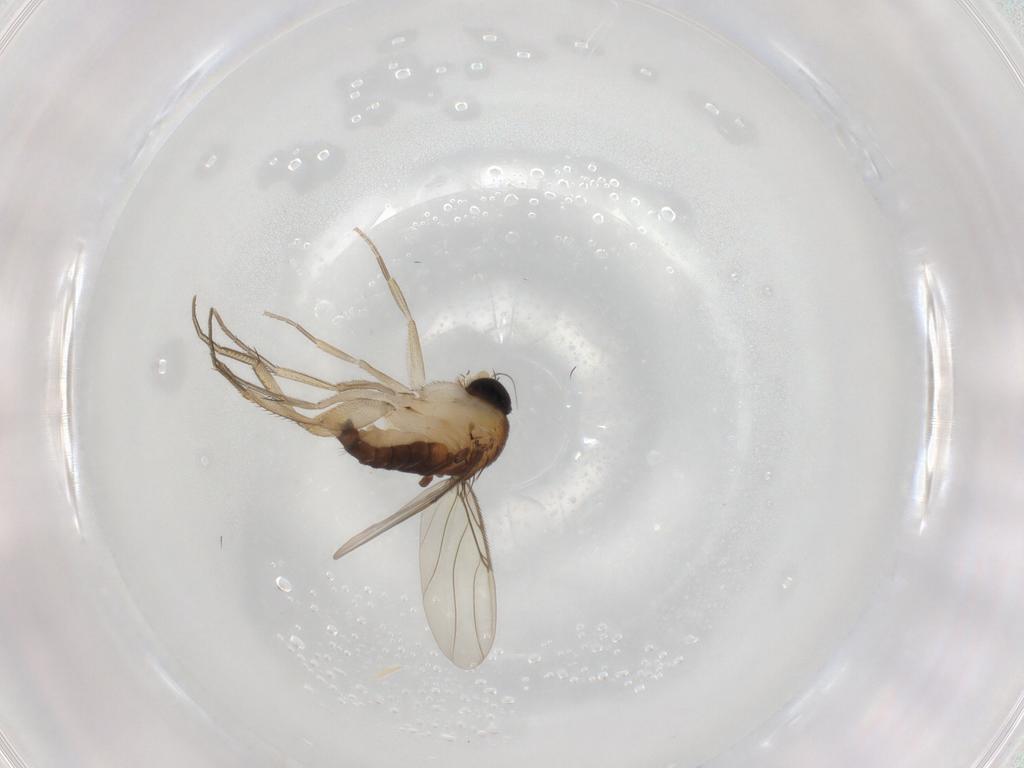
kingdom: Animalia
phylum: Arthropoda
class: Insecta
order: Diptera
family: Phoridae
